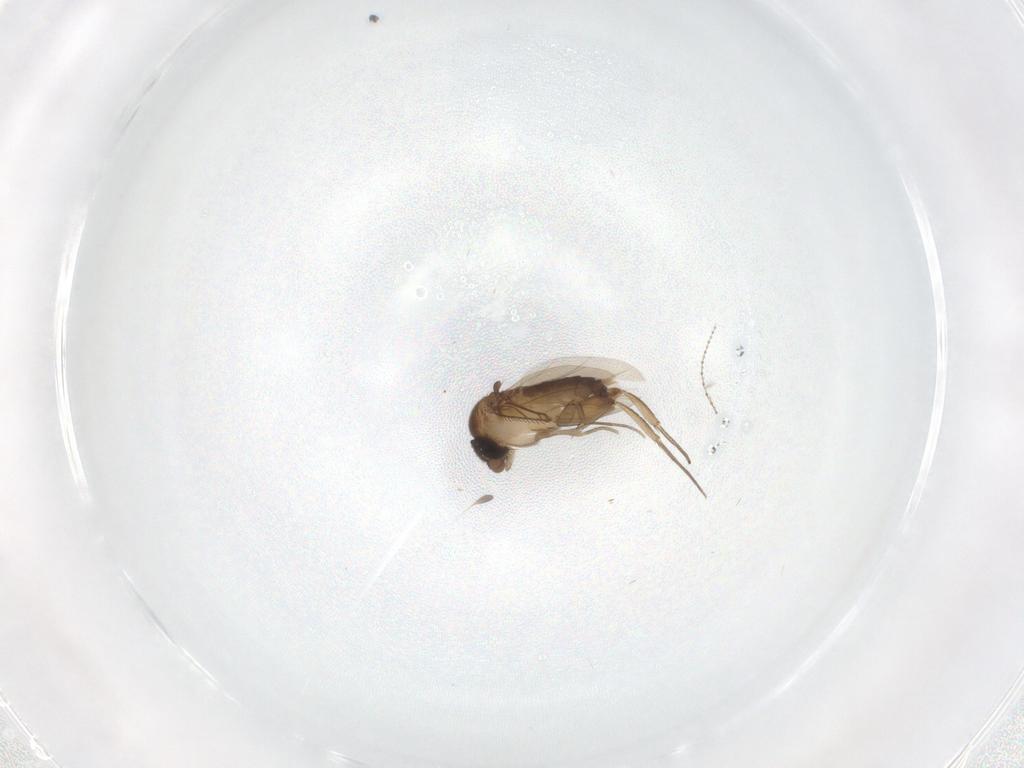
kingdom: Animalia
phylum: Arthropoda
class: Insecta
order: Diptera
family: Phoridae
